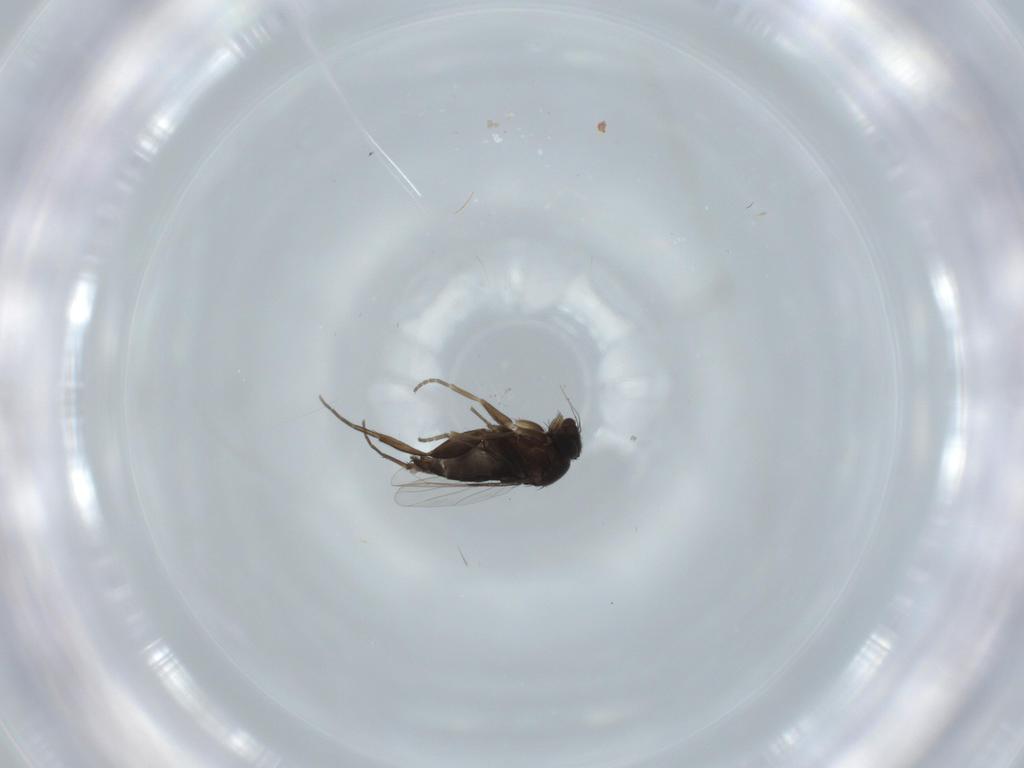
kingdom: Animalia
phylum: Arthropoda
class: Insecta
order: Diptera
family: Phoridae
